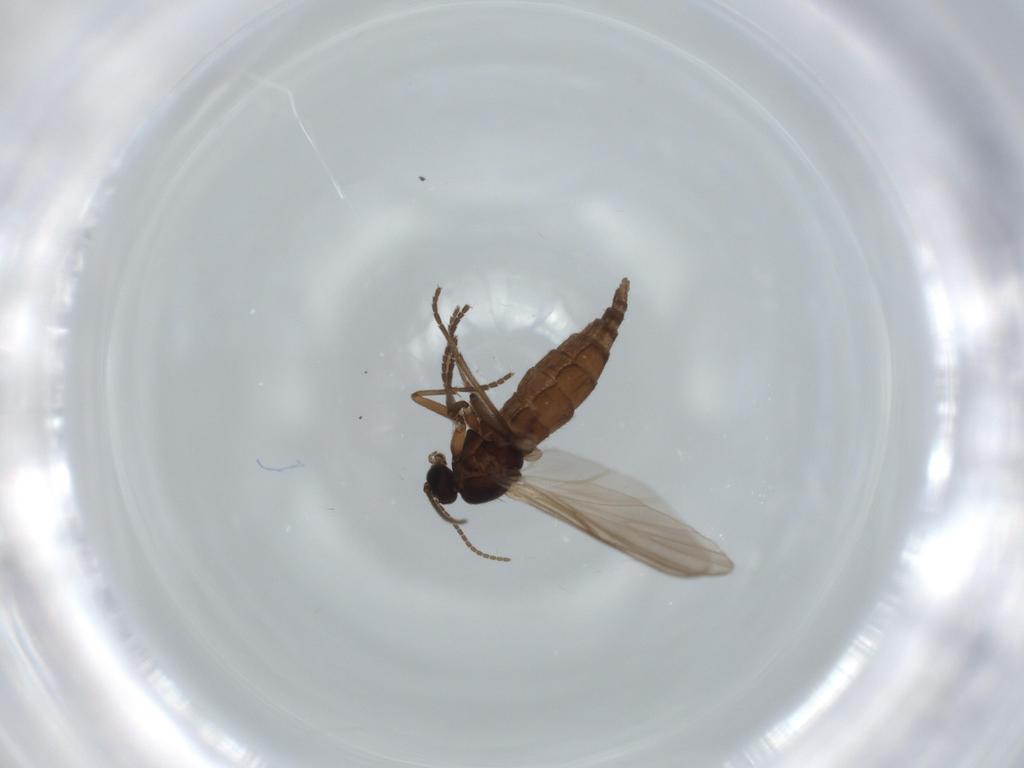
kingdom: Animalia
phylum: Arthropoda
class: Insecta
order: Diptera
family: Sciaridae
